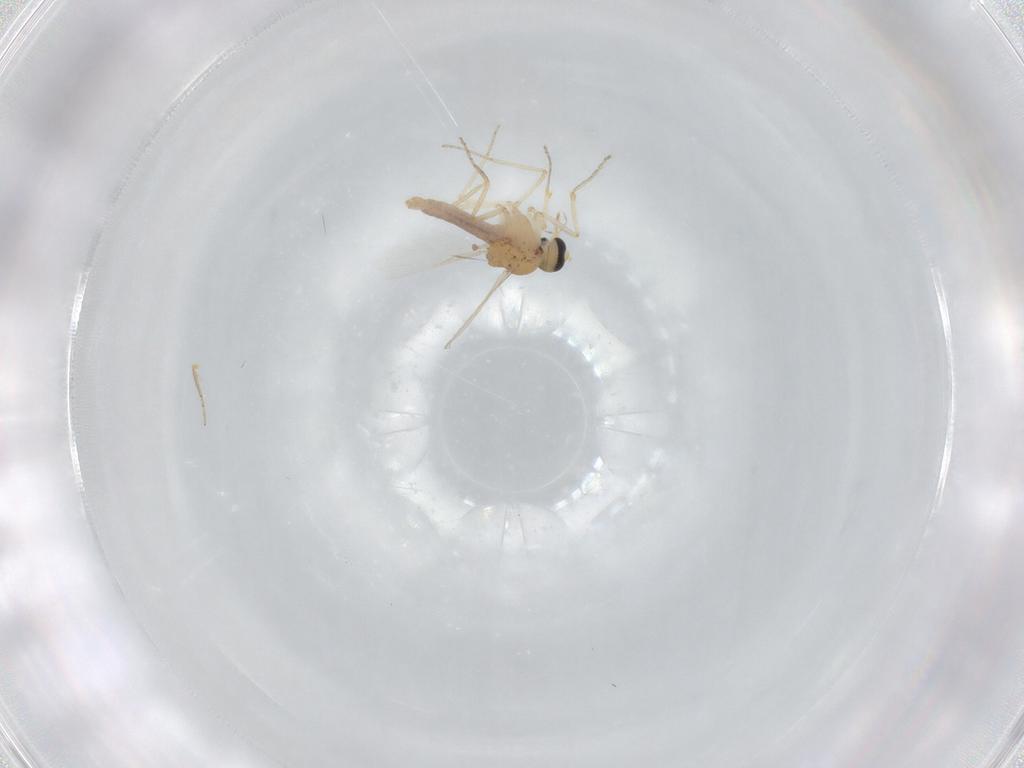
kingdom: Animalia
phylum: Arthropoda
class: Insecta
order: Diptera
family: Ceratopogonidae
